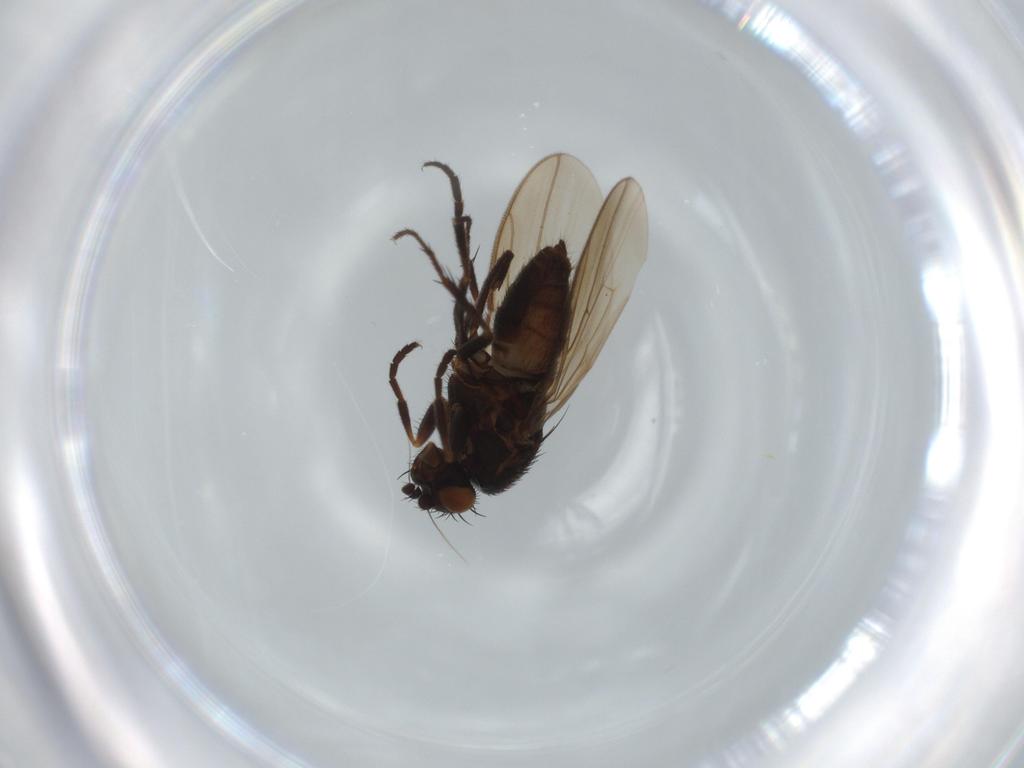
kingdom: Animalia
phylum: Arthropoda
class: Insecta
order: Diptera
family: Sphaeroceridae
